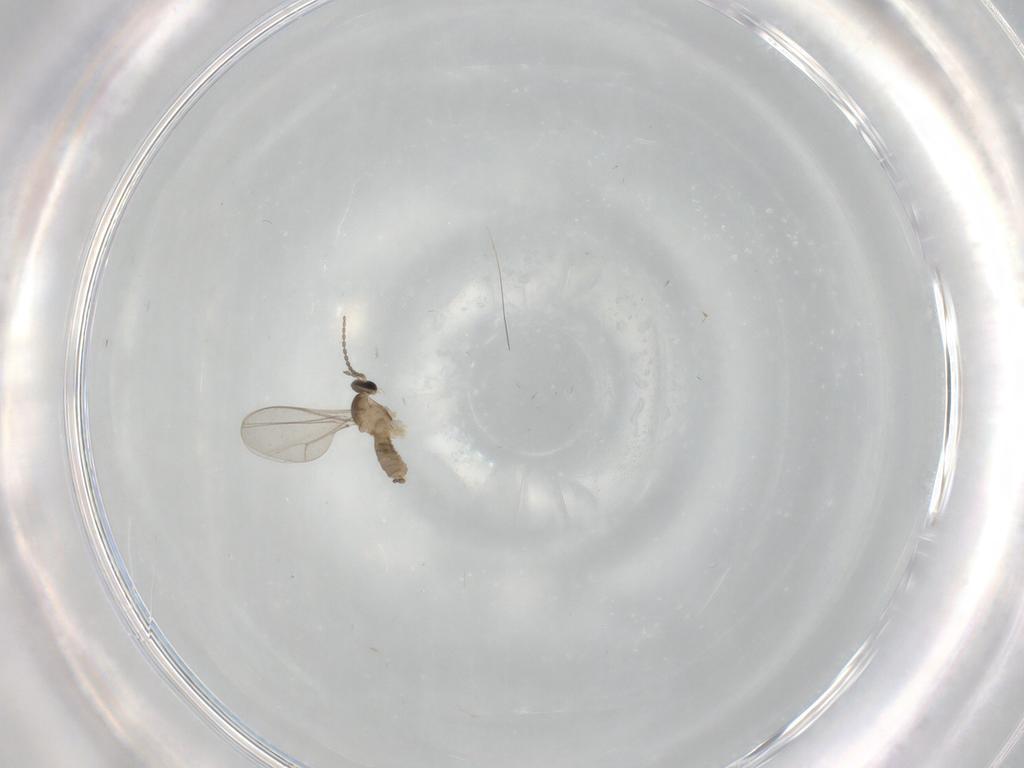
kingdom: Animalia
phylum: Arthropoda
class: Insecta
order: Diptera
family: Cecidomyiidae
